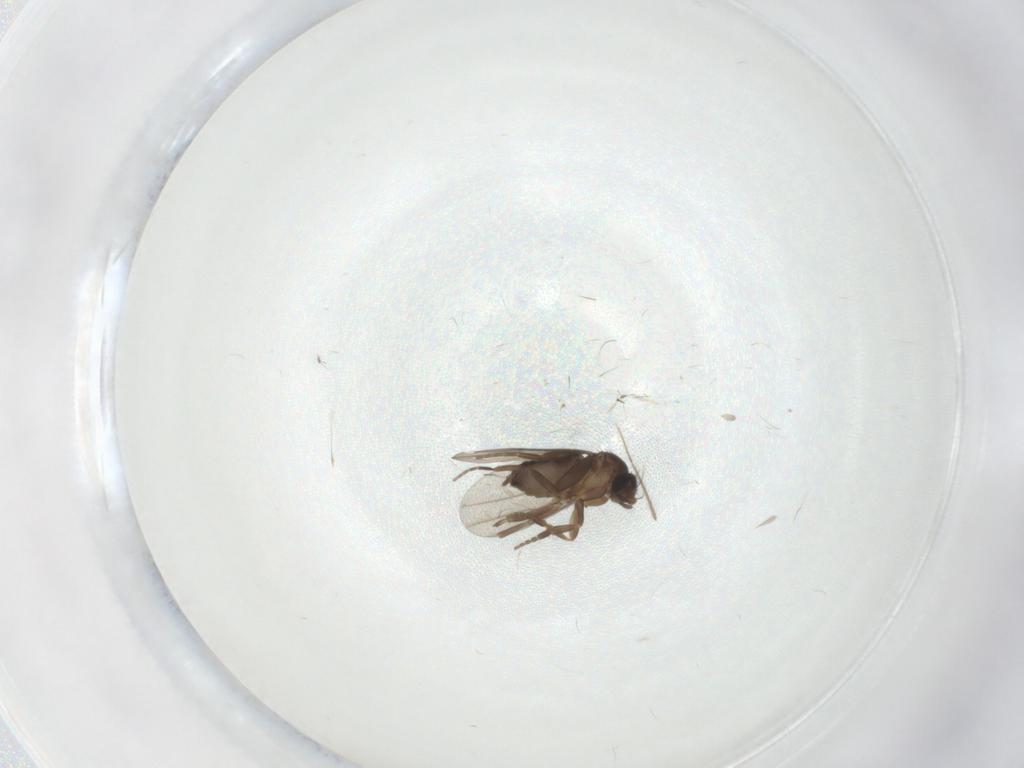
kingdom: Animalia
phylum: Arthropoda
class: Insecta
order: Diptera
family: Phoridae
